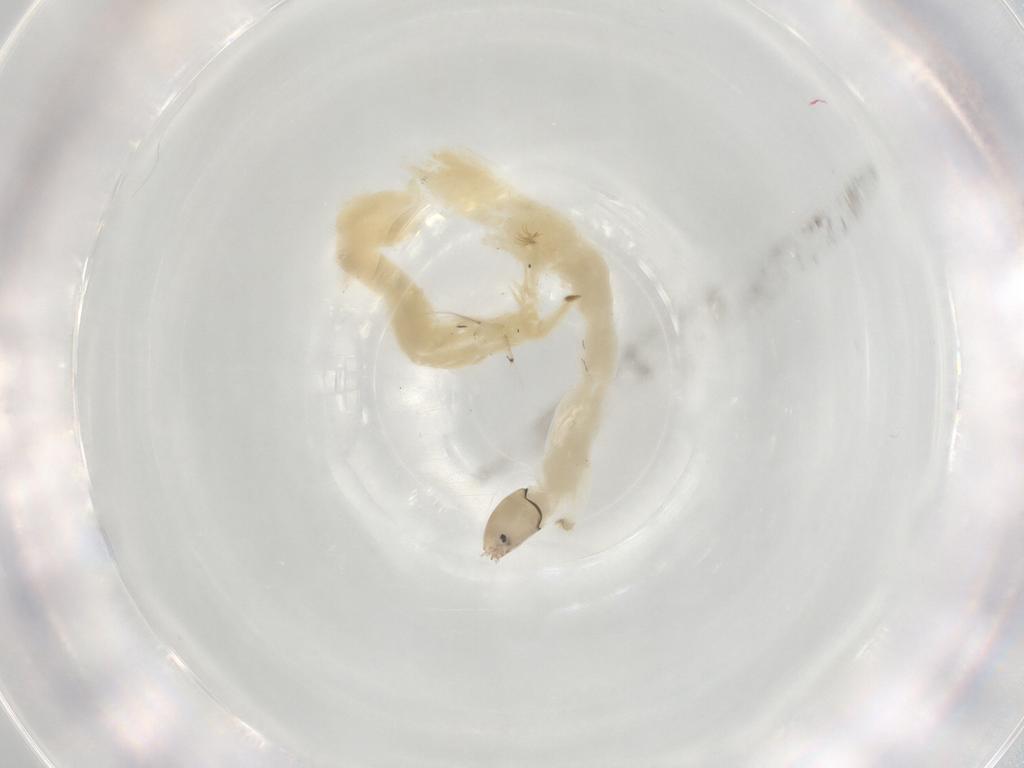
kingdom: Animalia
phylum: Arthropoda
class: Insecta
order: Diptera
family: Chironomidae
